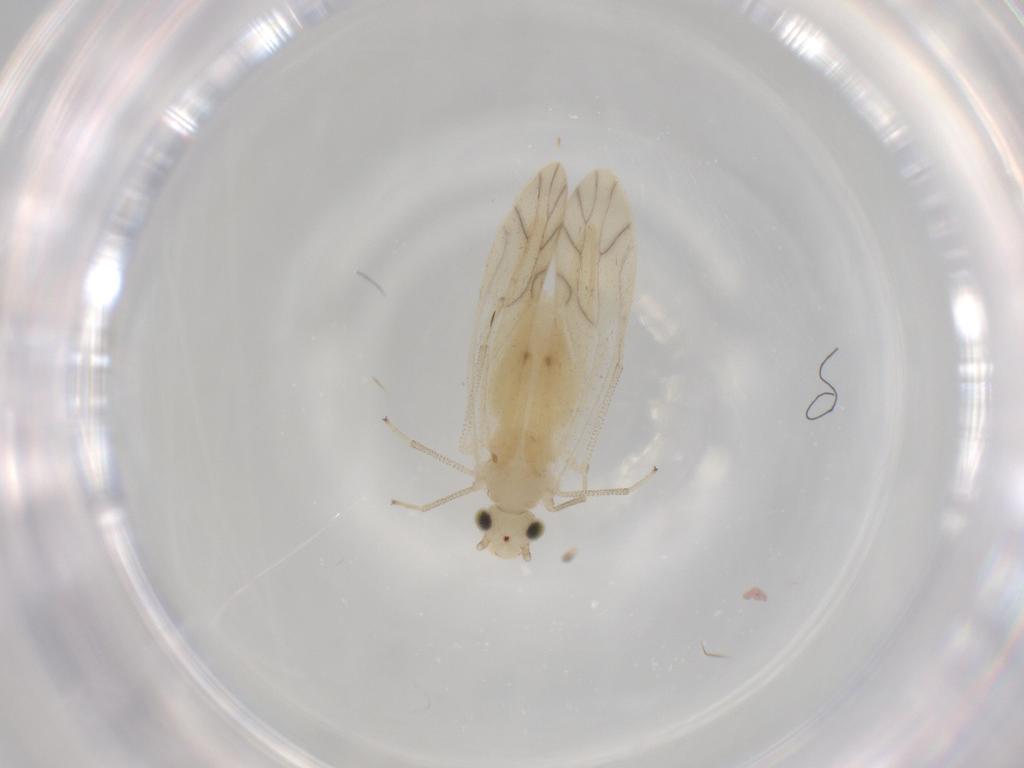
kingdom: Animalia
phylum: Arthropoda
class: Insecta
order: Psocodea
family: Caeciliusidae
